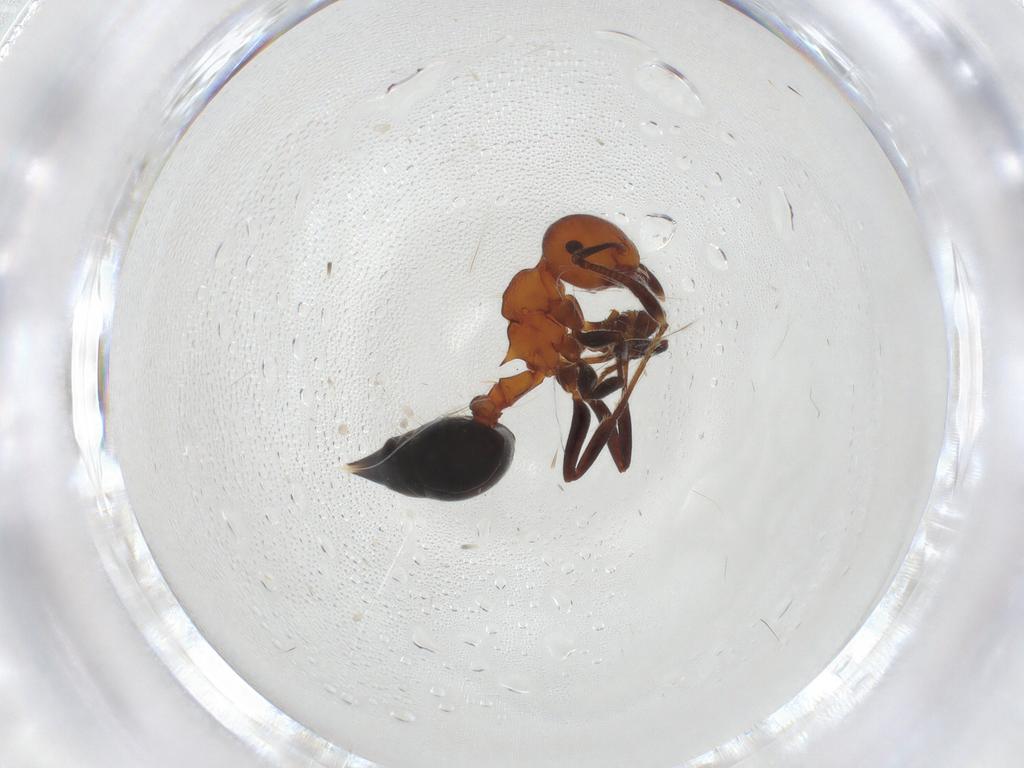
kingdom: Animalia
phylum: Arthropoda
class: Insecta
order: Hymenoptera
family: Formicidae
